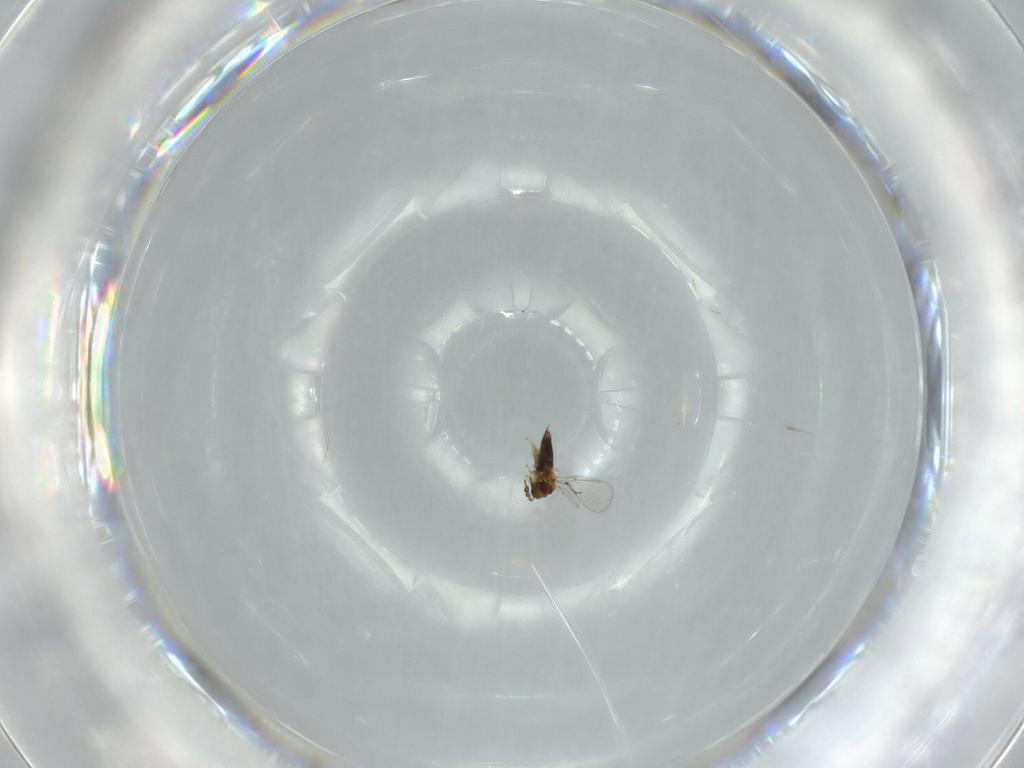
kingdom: Animalia
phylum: Arthropoda
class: Insecta
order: Hymenoptera
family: Trichogrammatidae
